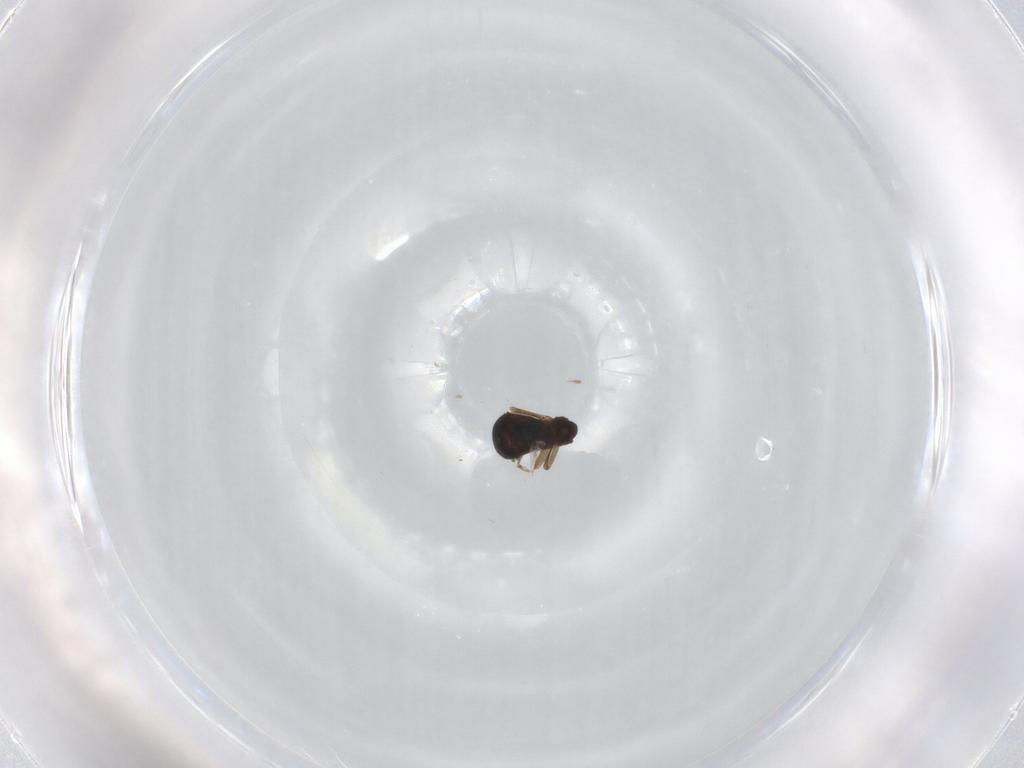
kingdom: Animalia
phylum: Arthropoda
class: Insecta
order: Diptera
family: Ceratopogonidae
